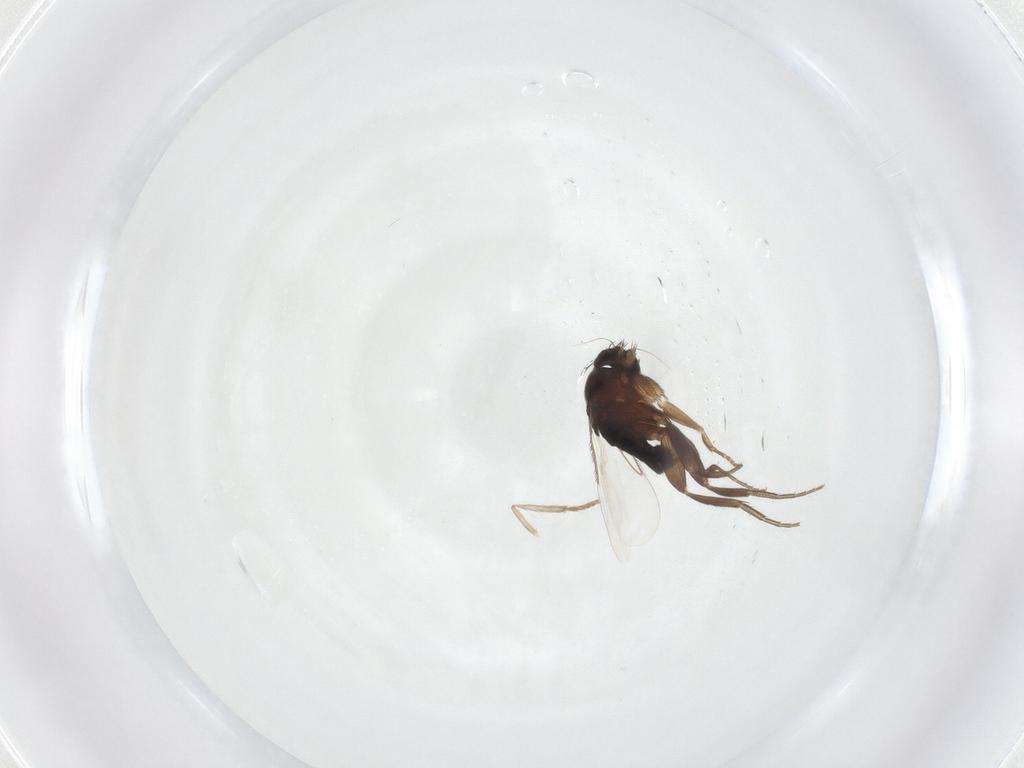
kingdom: Animalia
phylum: Arthropoda
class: Insecta
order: Diptera
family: Phoridae
